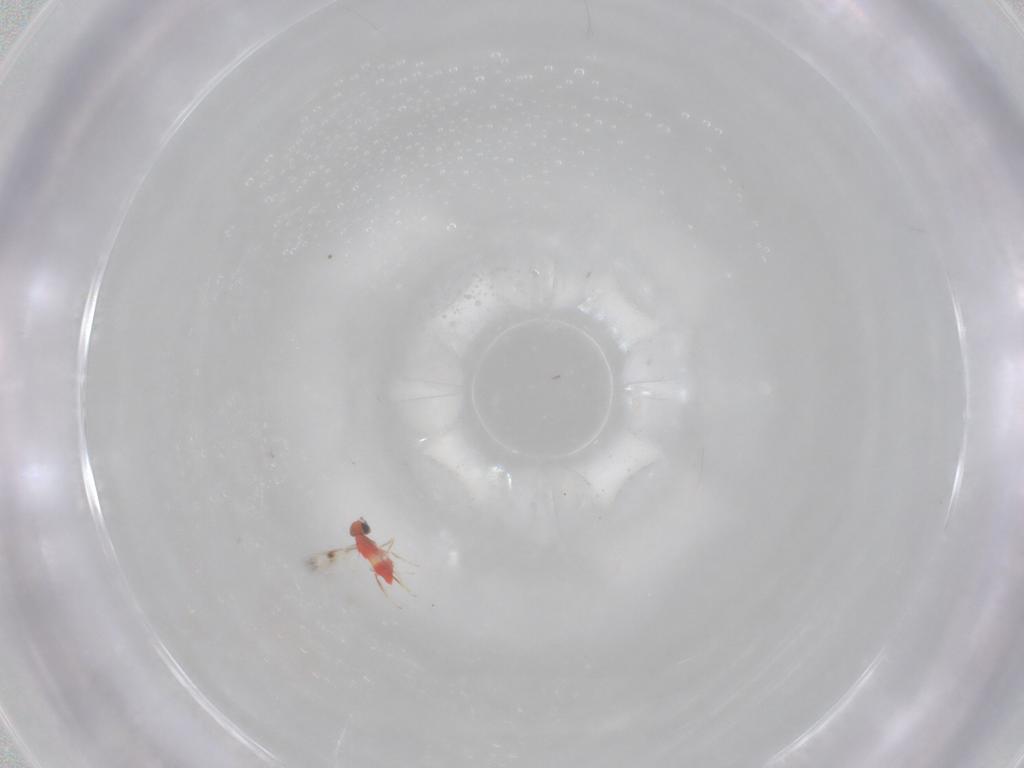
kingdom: Animalia
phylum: Arthropoda
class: Insecta
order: Hymenoptera
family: Trichogrammatidae
